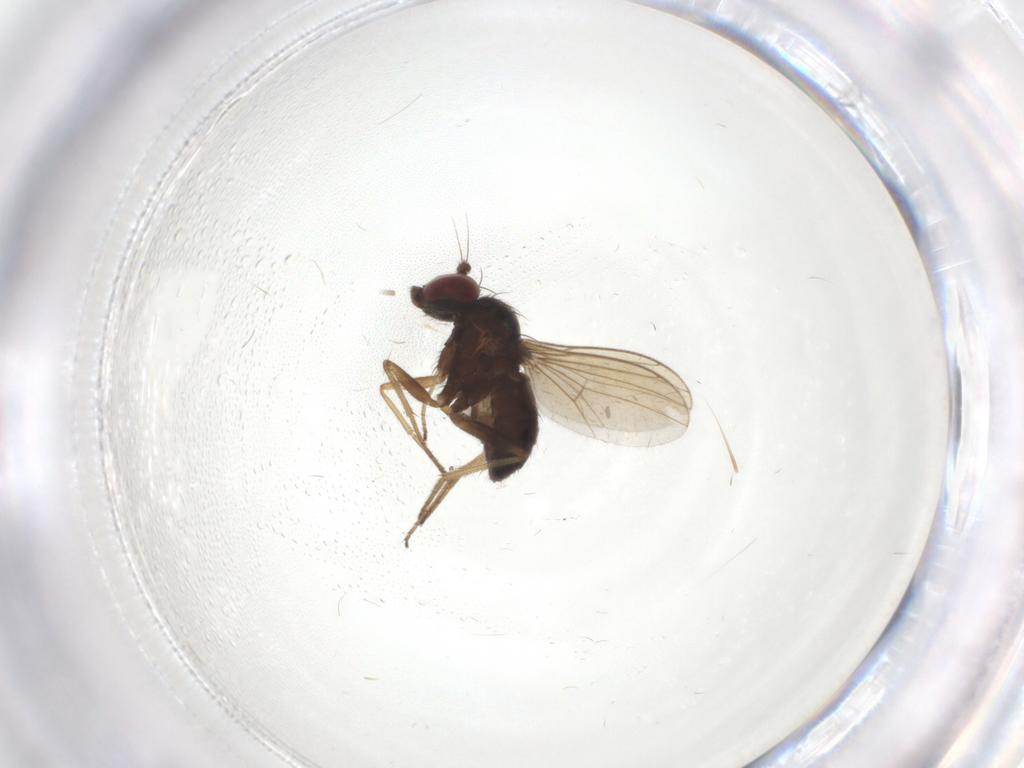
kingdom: Animalia
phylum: Arthropoda
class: Insecta
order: Diptera
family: Dolichopodidae
